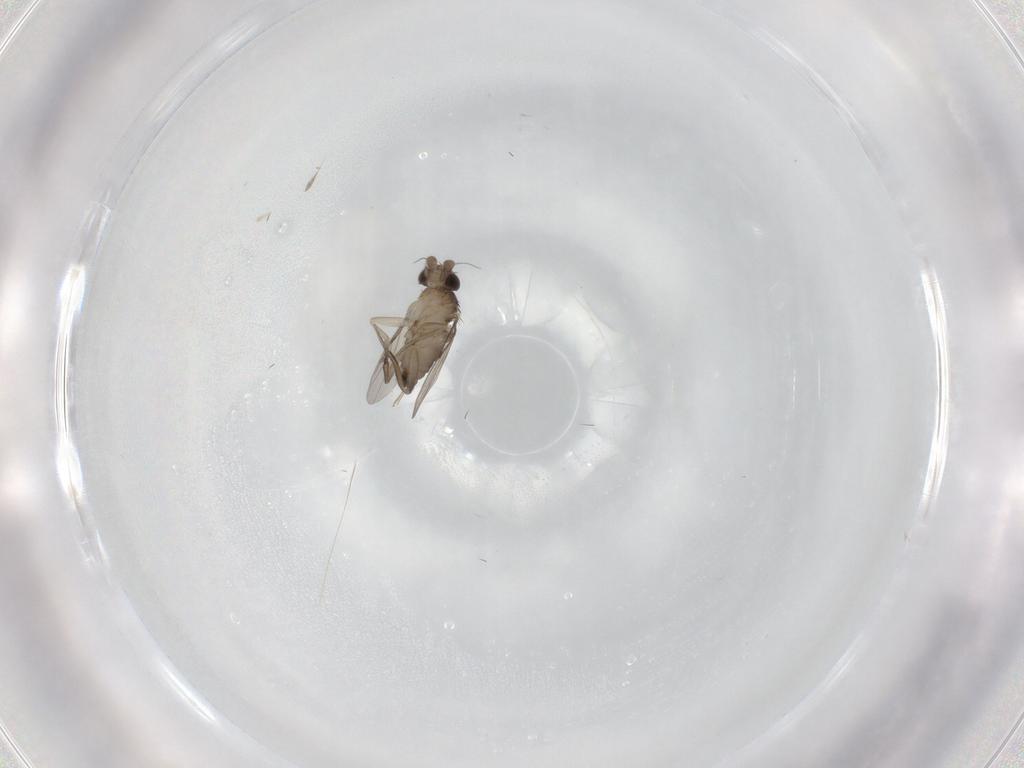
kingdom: Animalia
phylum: Arthropoda
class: Insecta
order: Diptera
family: Phoridae
